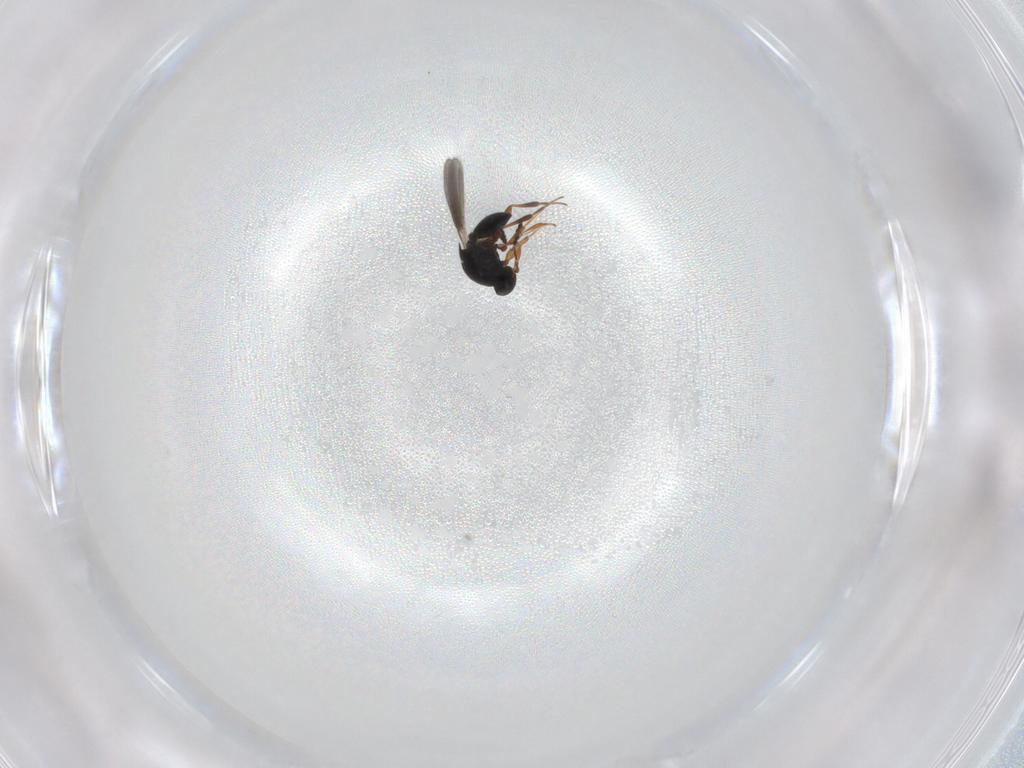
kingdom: Animalia
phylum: Arthropoda
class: Insecta
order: Hymenoptera
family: Platygastridae
